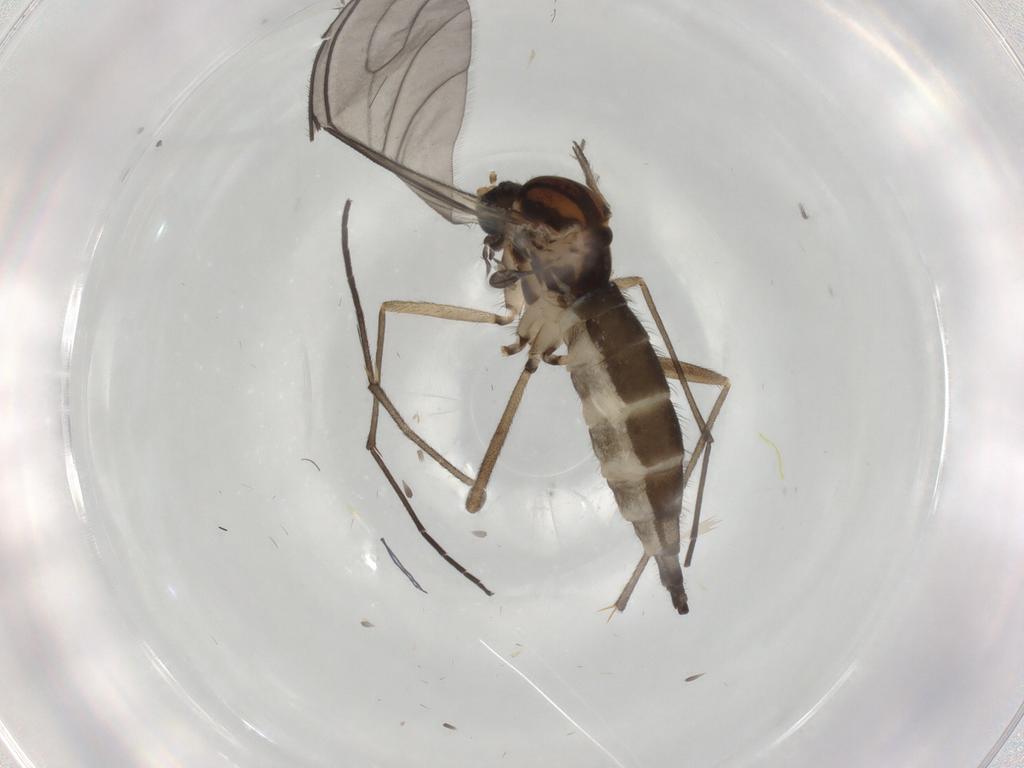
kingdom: Animalia
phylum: Arthropoda
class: Insecta
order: Diptera
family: Sciaridae
